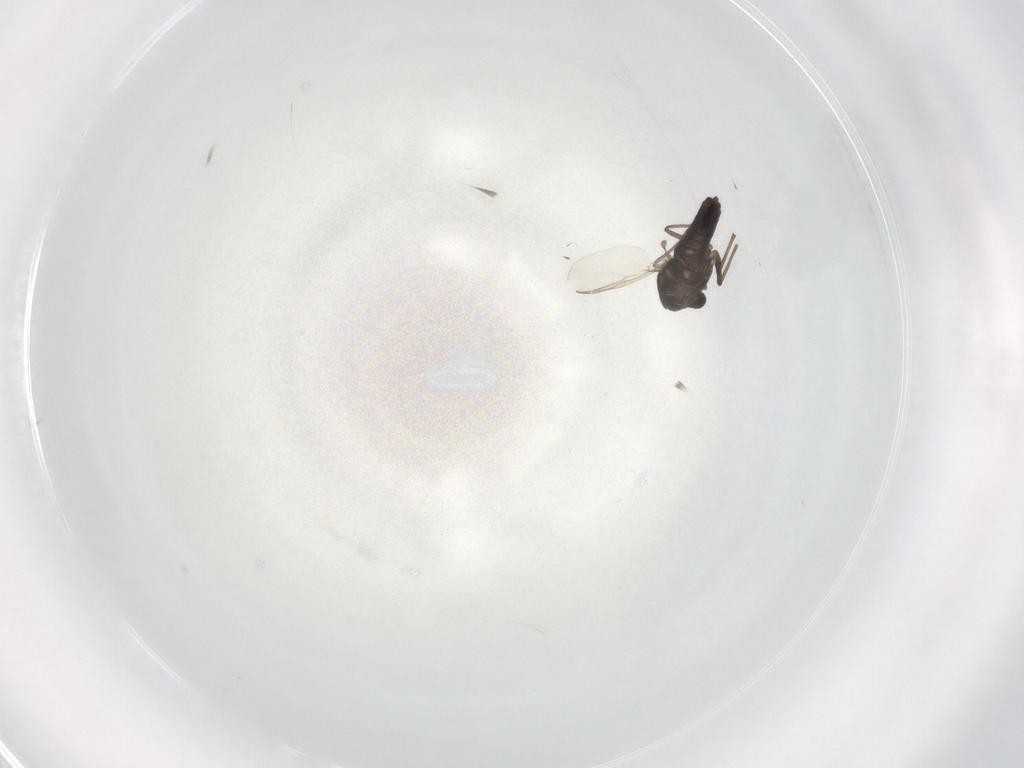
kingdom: Animalia
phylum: Arthropoda
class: Insecta
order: Diptera
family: Chironomidae
